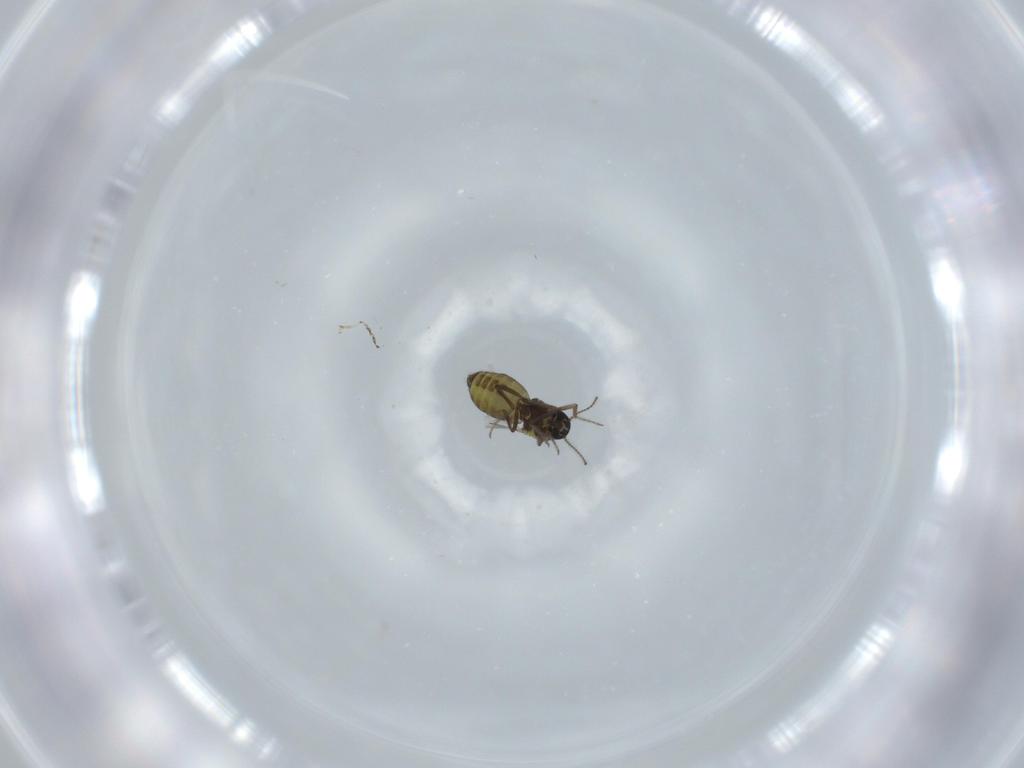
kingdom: Animalia
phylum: Arthropoda
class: Insecta
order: Diptera
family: Ceratopogonidae
